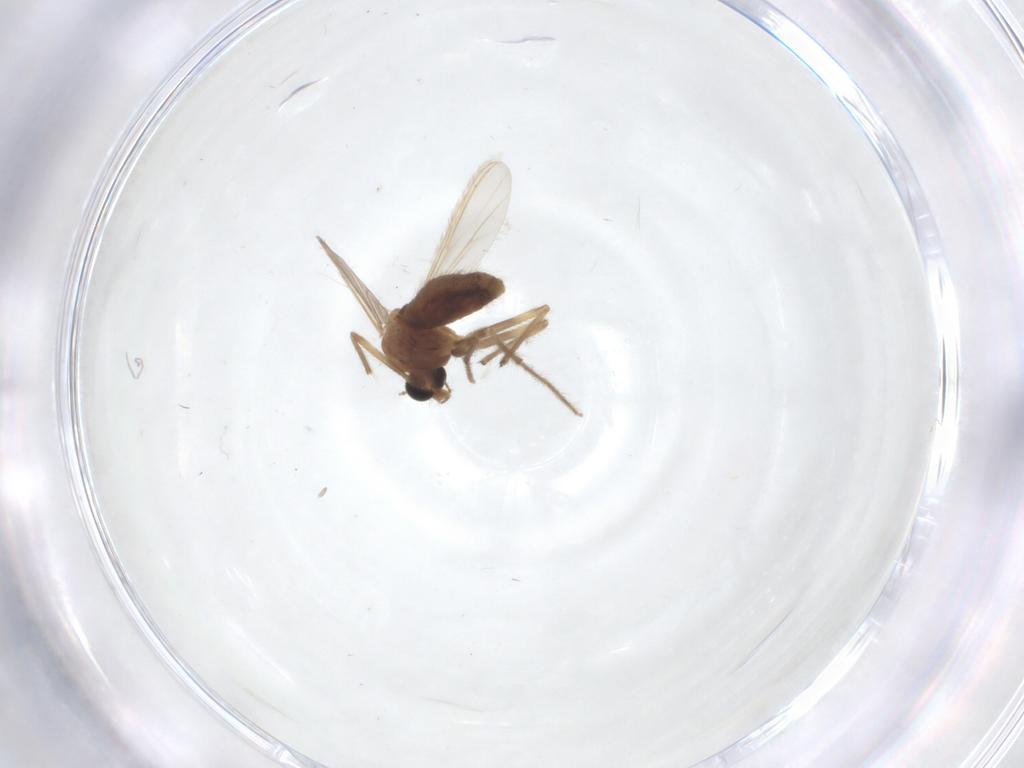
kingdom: Animalia
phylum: Arthropoda
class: Insecta
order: Diptera
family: Chironomidae
